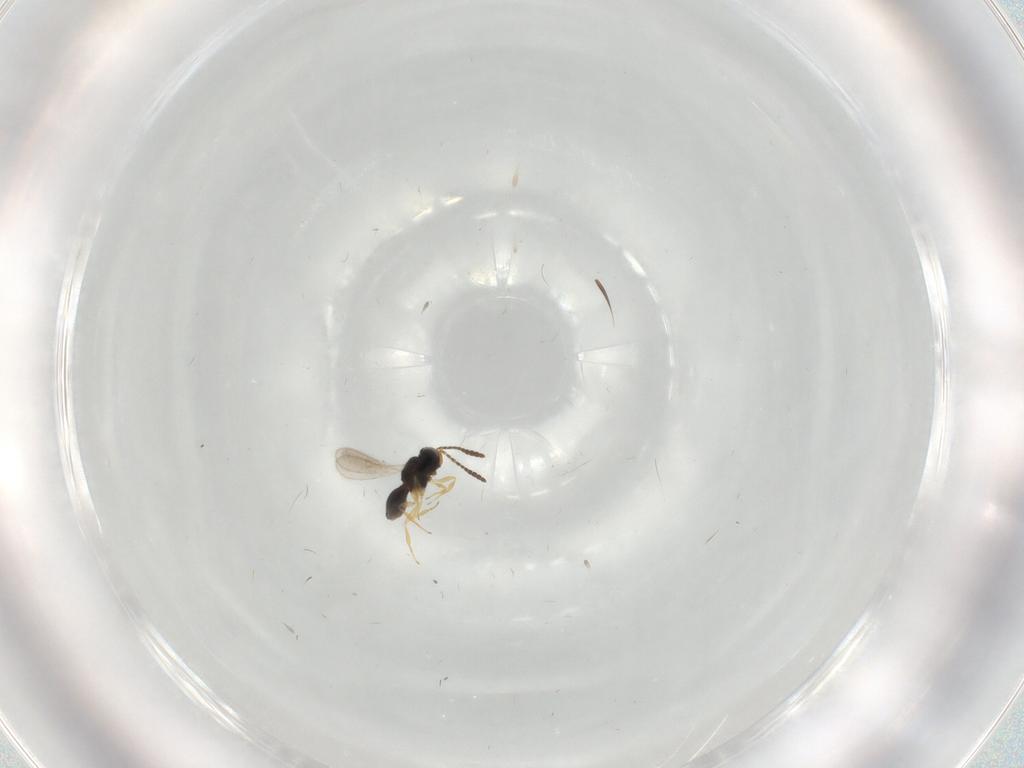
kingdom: Animalia
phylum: Arthropoda
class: Insecta
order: Hymenoptera
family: Scelionidae
